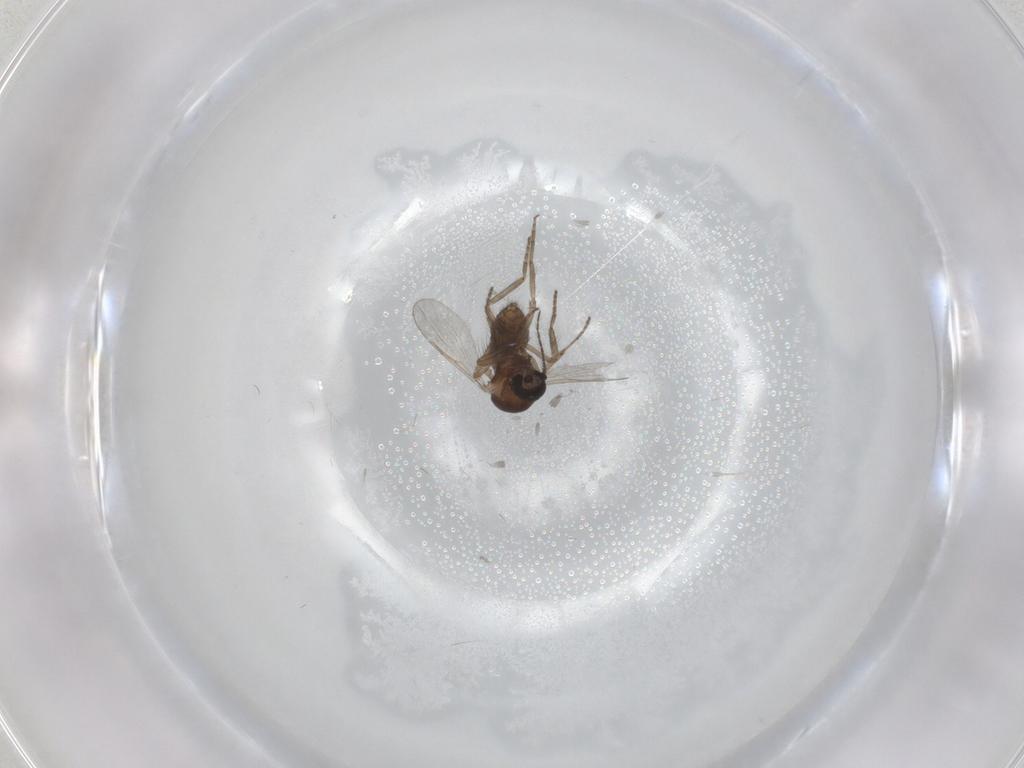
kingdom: Animalia
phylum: Arthropoda
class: Insecta
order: Diptera
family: Ceratopogonidae
